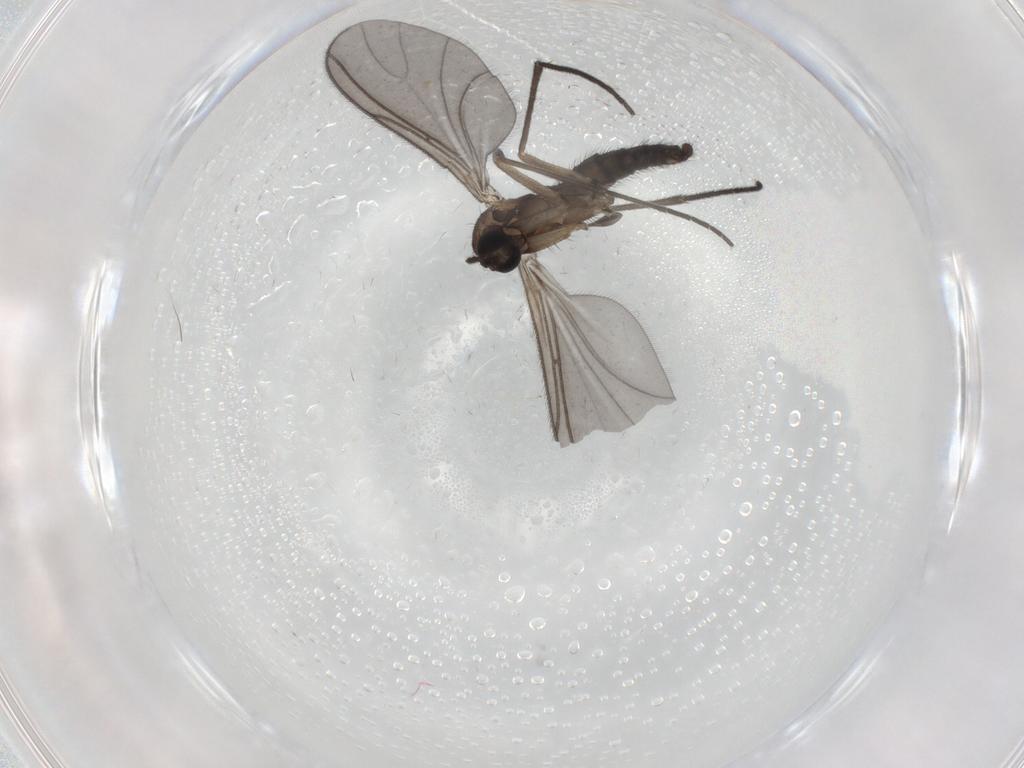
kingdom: Animalia
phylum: Arthropoda
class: Insecta
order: Diptera
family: Sciaridae
